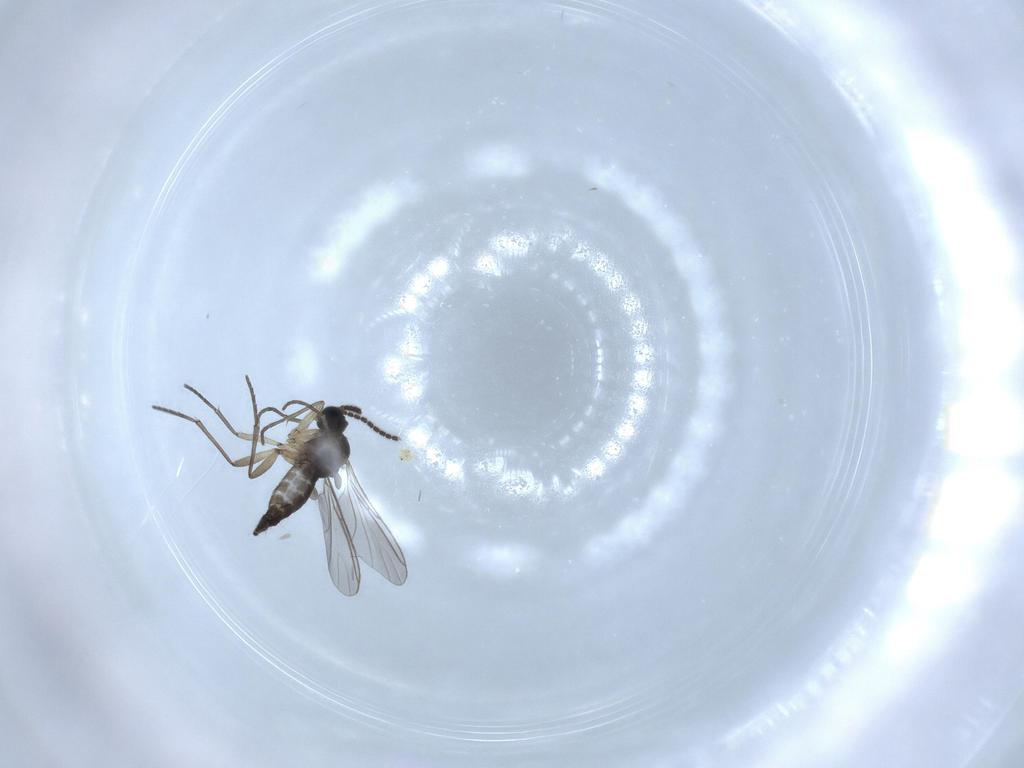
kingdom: Animalia
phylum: Arthropoda
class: Insecta
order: Diptera
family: Sciaridae
